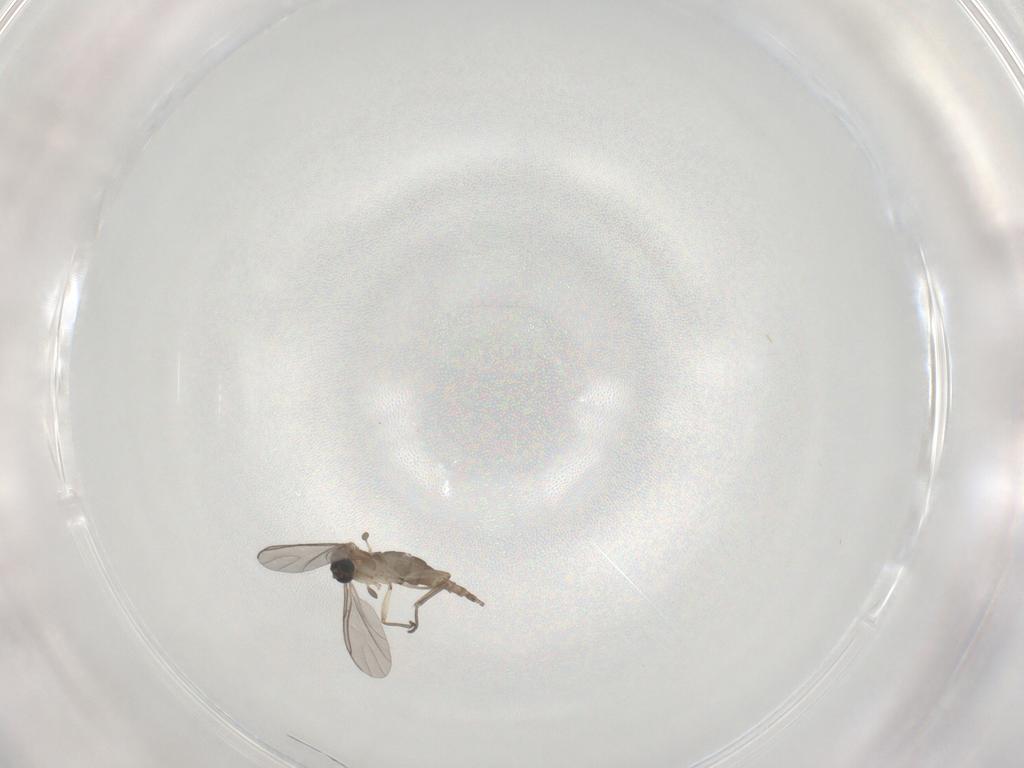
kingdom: Animalia
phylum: Arthropoda
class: Insecta
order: Diptera
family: Sciaridae
